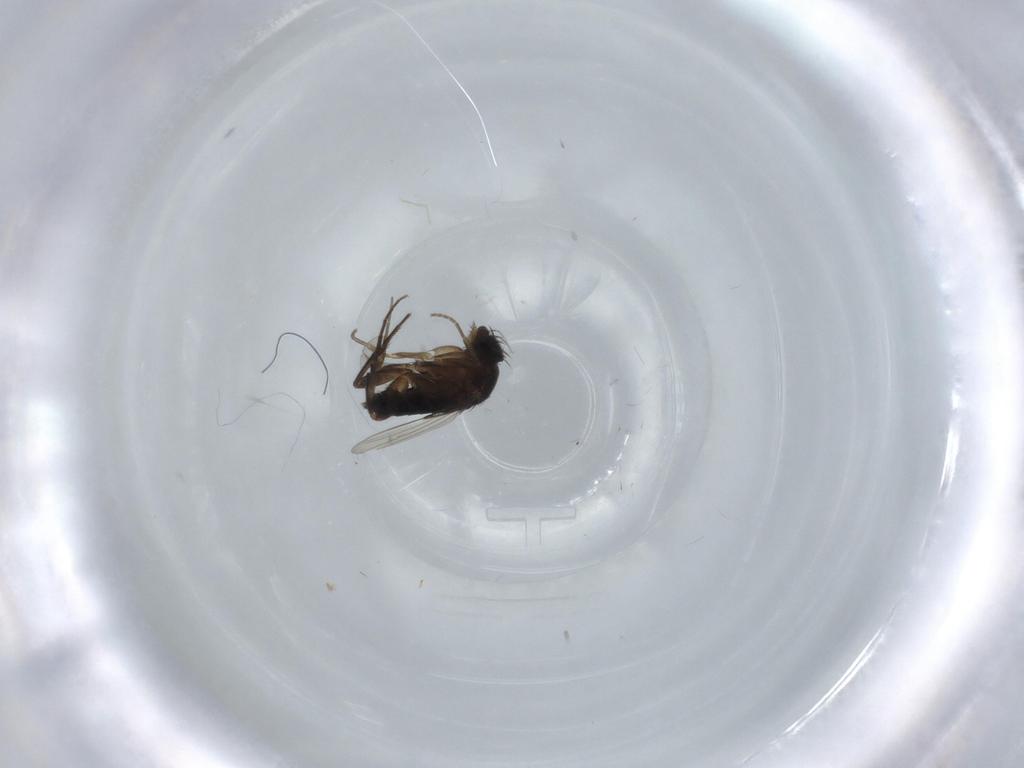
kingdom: Animalia
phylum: Arthropoda
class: Insecta
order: Diptera
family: Cecidomyiidae
